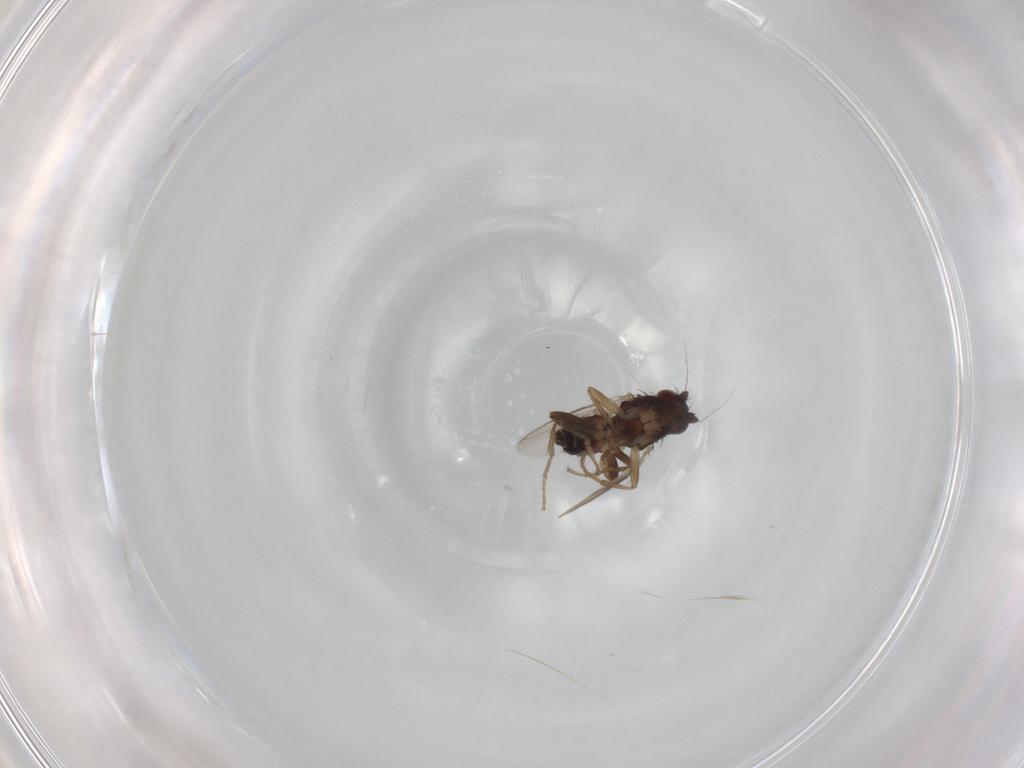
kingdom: Animalia
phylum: Arthropoda
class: Insecta
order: Diptera
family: Sphaeroceridae
